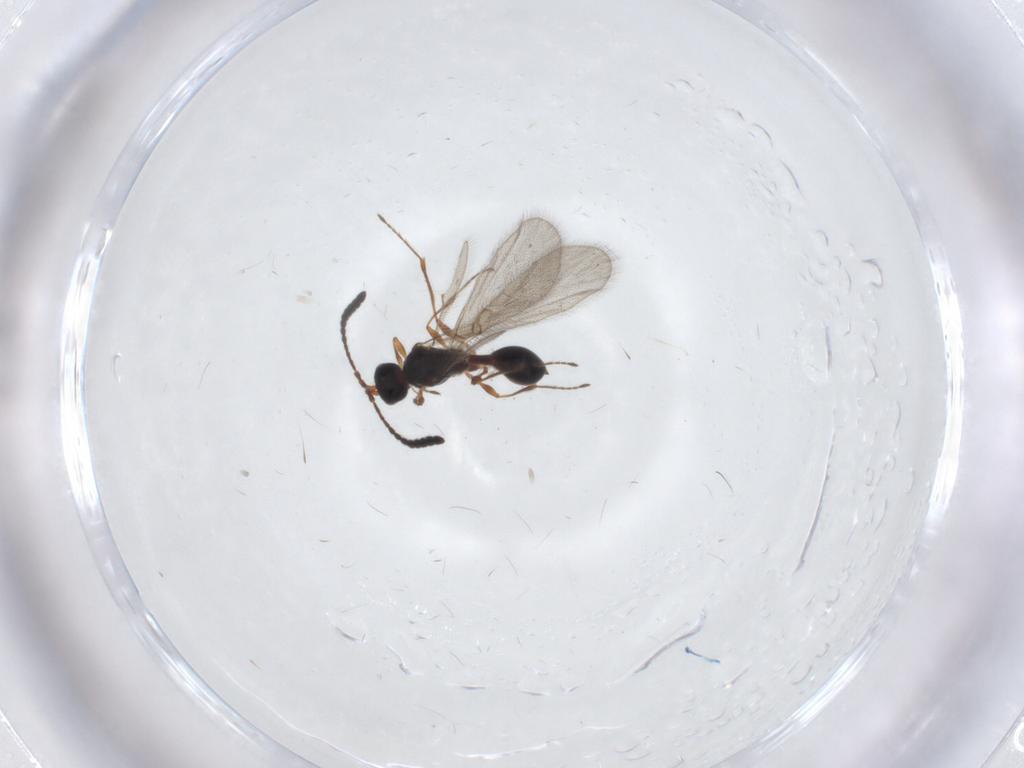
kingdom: Animalia
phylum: Arthropoda
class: Insecta
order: Hymenoptera
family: Diapriidae
